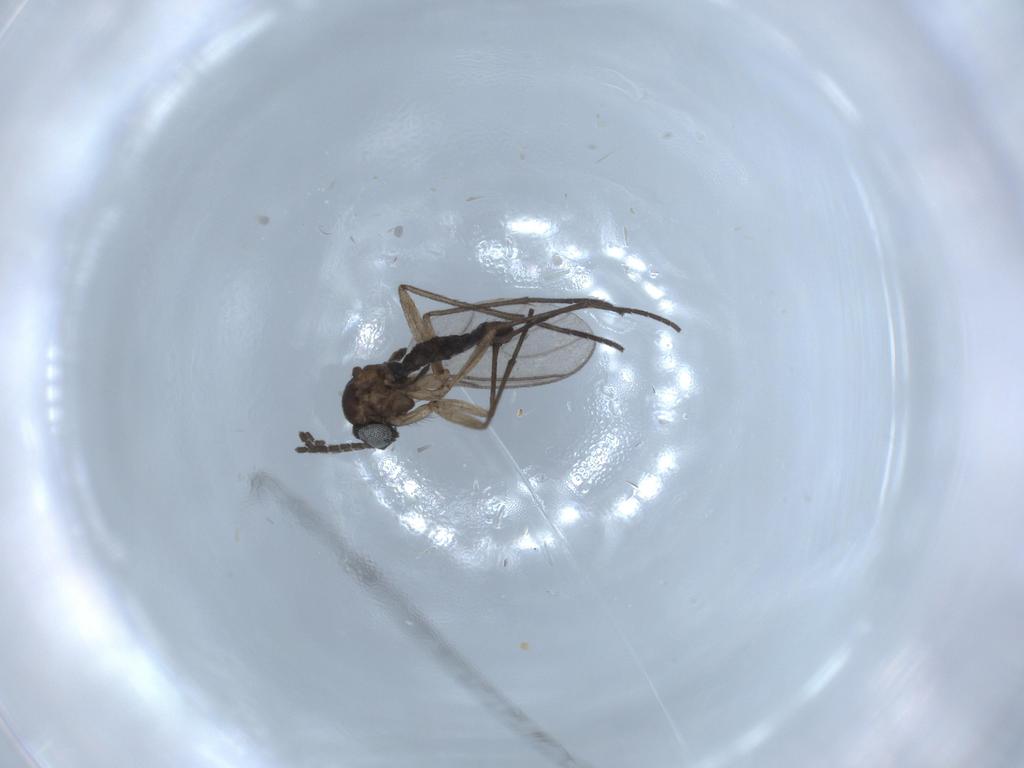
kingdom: Animalia
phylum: Arthropoda
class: Insecta
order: Diptera
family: Sciaridae
